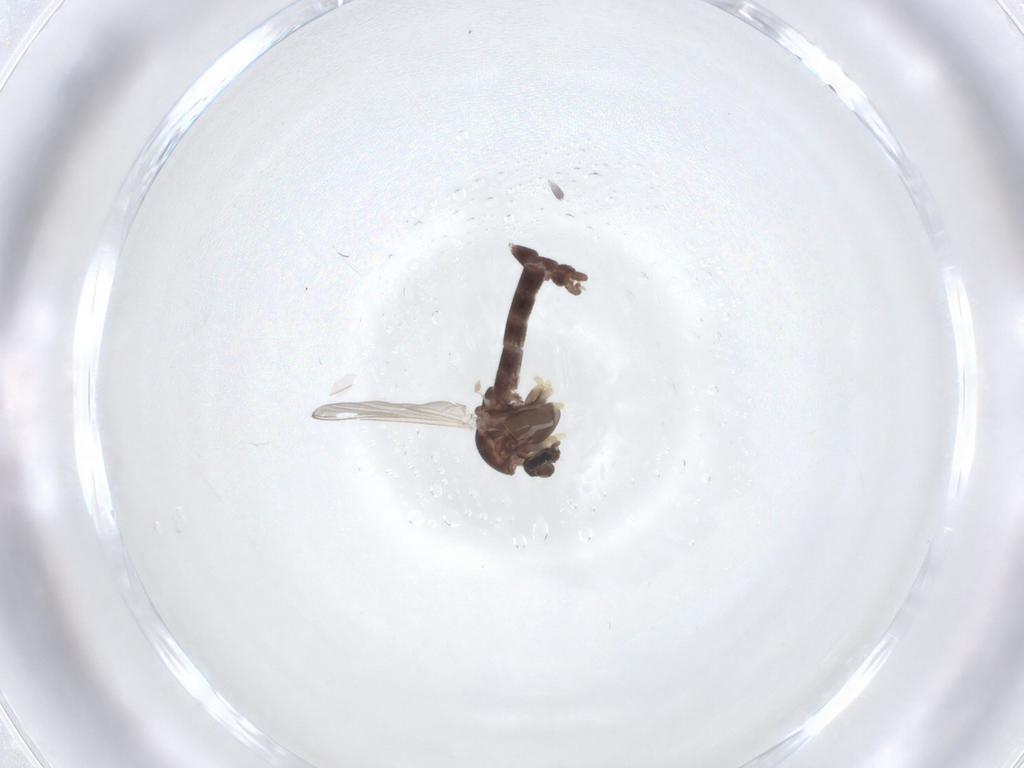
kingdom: Animalia
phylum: Arthropoda
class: Insecta
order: Diptera
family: Chironomidae
